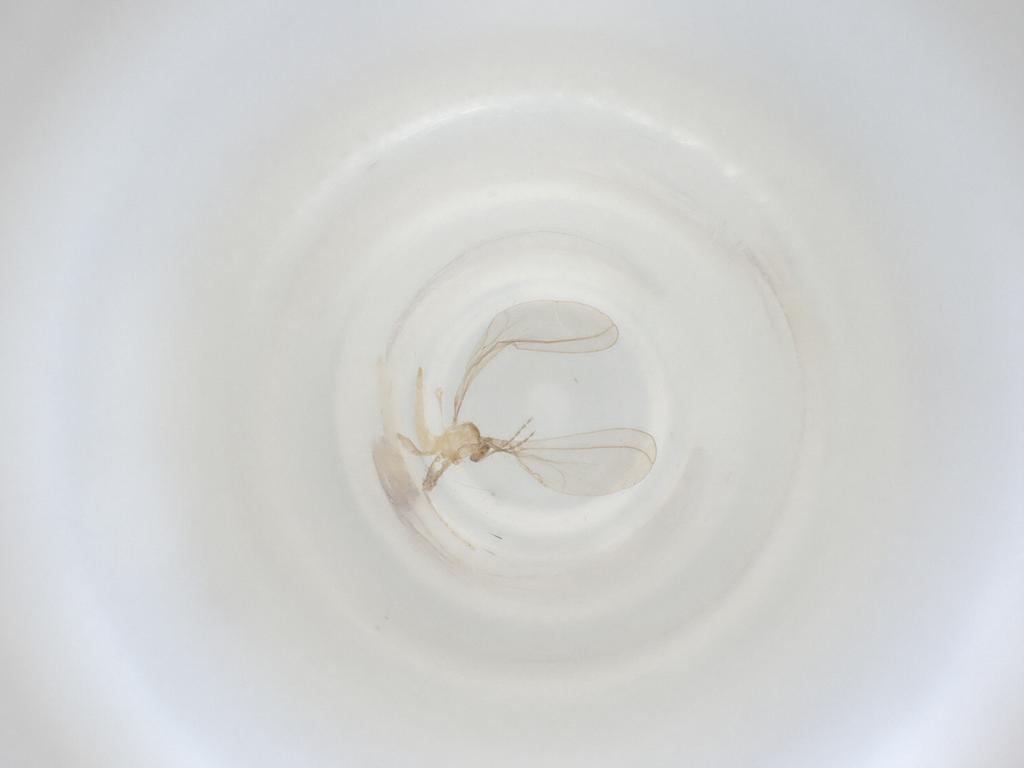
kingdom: Animalia
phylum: Arthropoda
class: Insecta
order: Diptera
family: Cecidomyiidae
